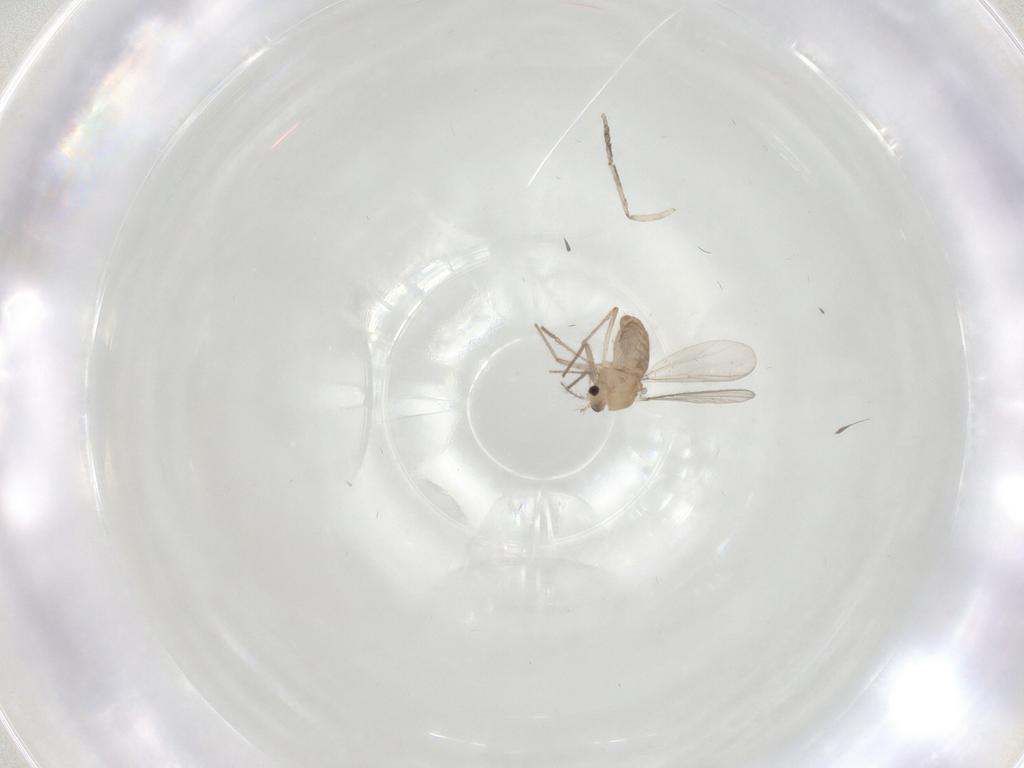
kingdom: Animalia
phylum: Arthropoda
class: Insecta
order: Diptera
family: Chironomidae
